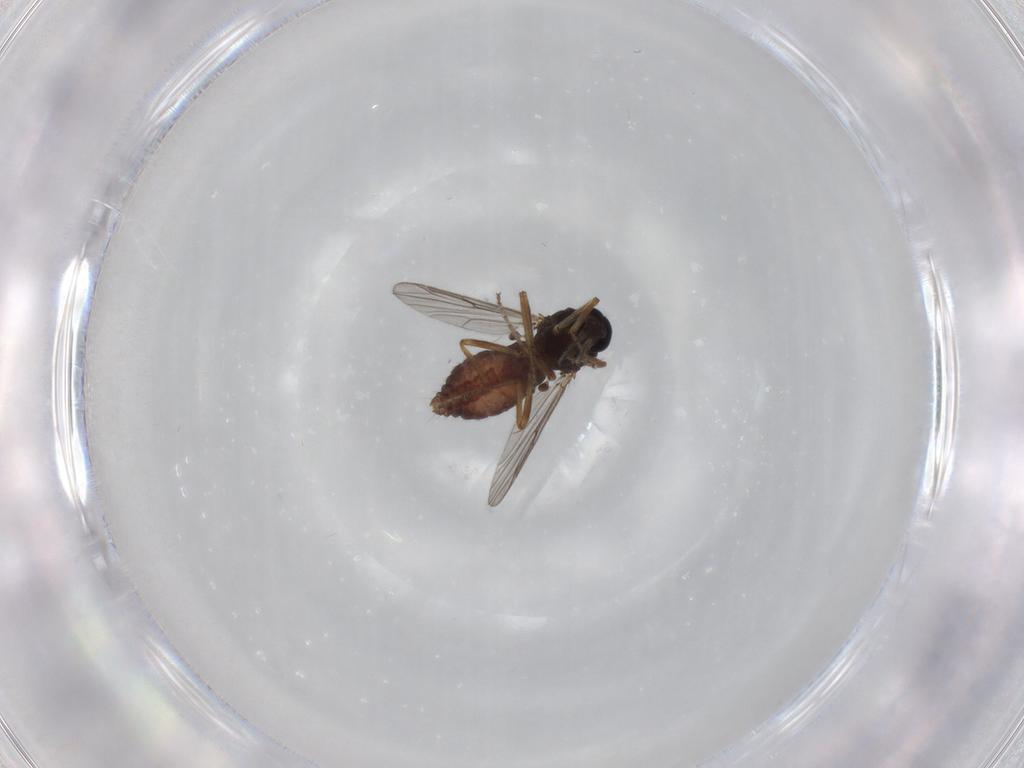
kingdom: Animalia
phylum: Arthropoda
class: Insecta
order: Diptera
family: Ceratopogonidae
